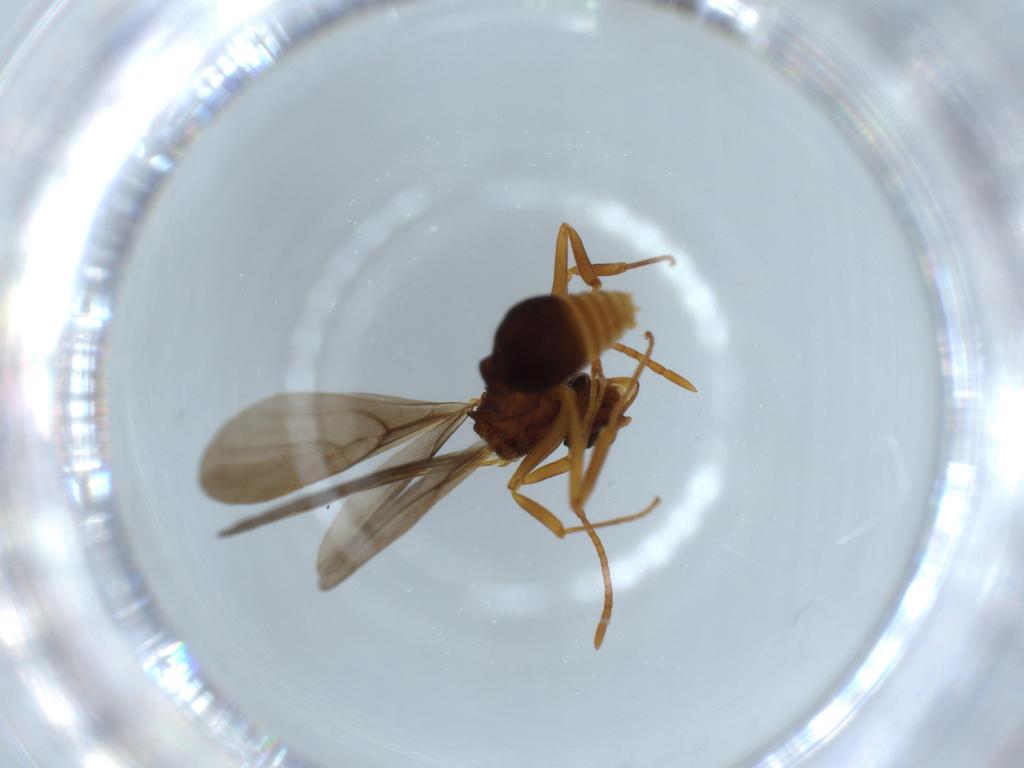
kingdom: Animalia
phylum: Arthropoda
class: Insecta
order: Hymenoptera
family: Formicidae
